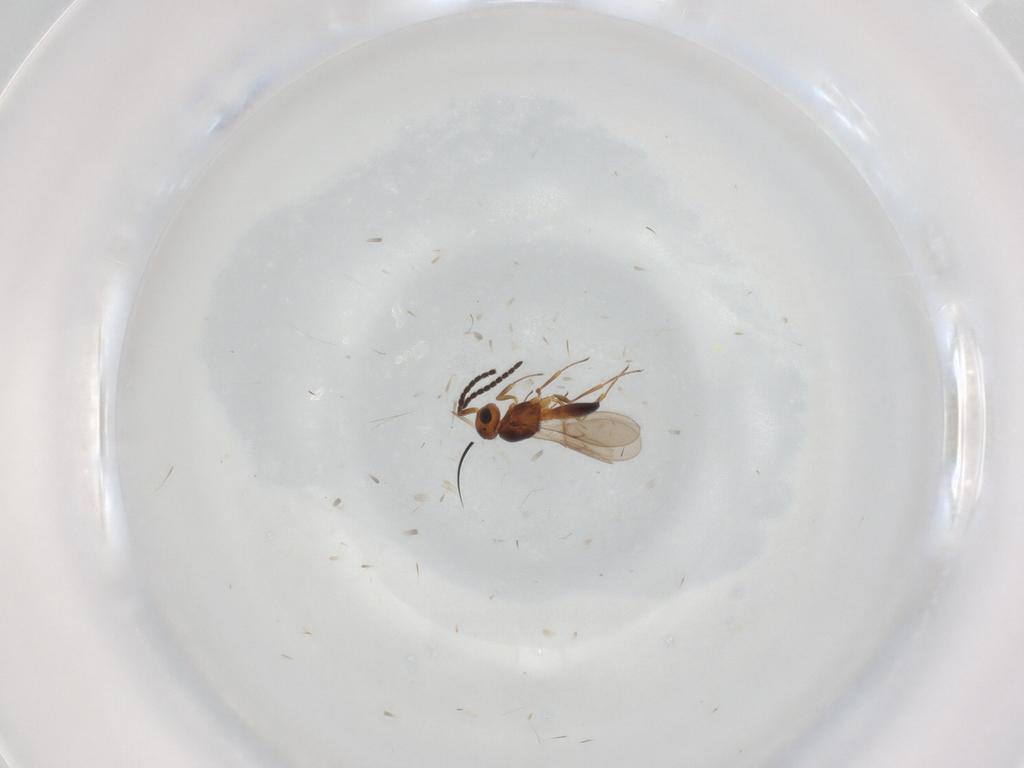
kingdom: Animalia
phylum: Arthropoda
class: Insecta
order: Hymenoptera
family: Scelionidae
